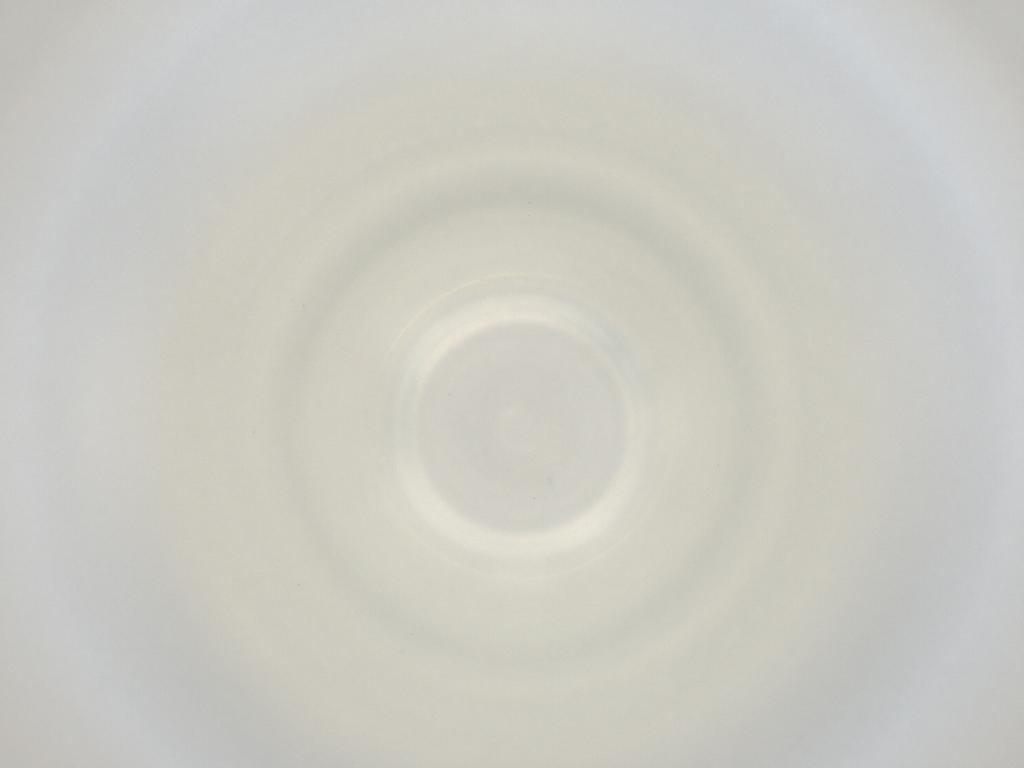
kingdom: Animalia
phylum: Arthropoda
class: Insecta
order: Diptera
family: Cecidomyiidae
